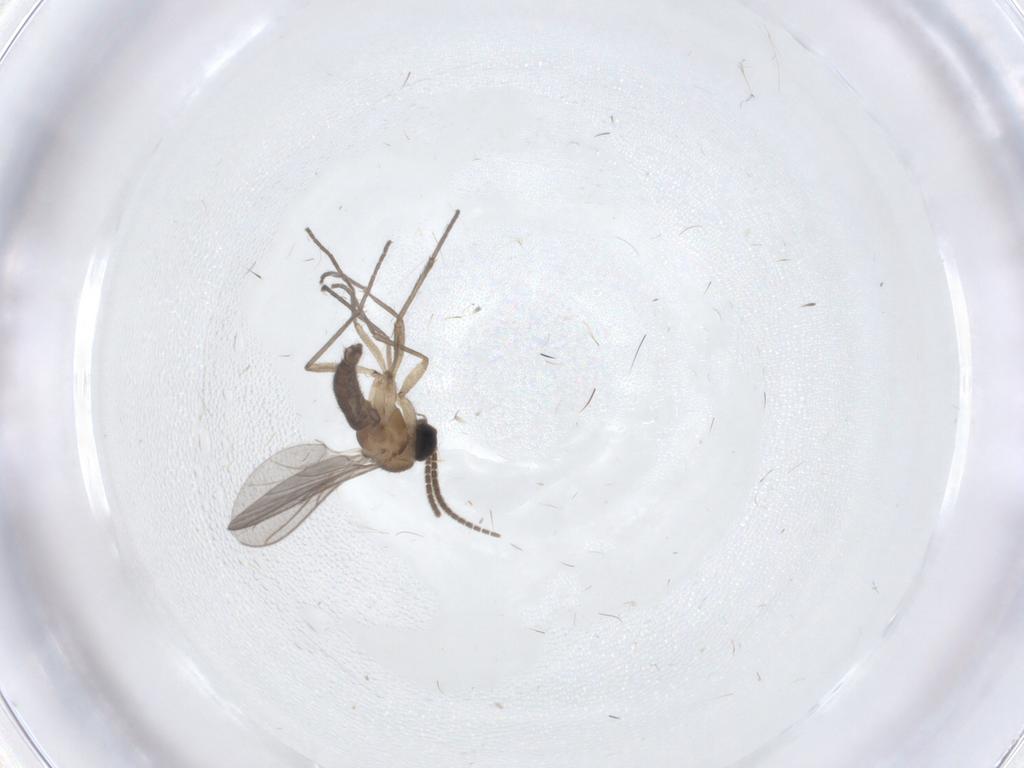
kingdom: Animalia
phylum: Arthropoda
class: Insecta
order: Diptera
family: Sciaridae
